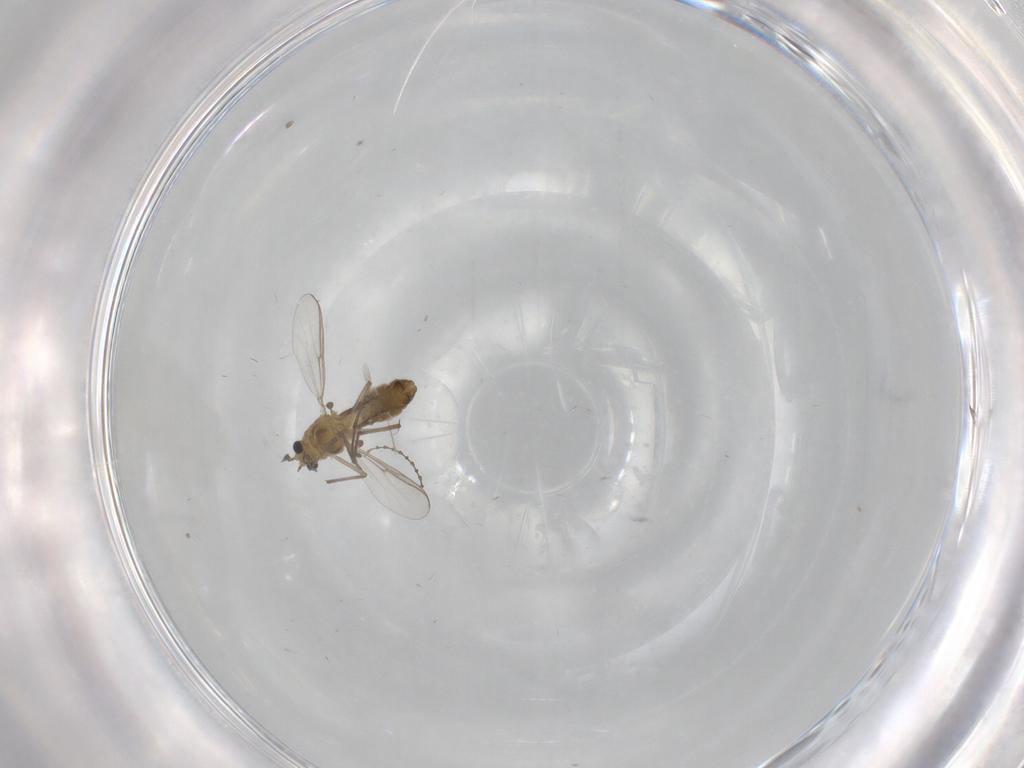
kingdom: Animalia
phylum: Arthropoda
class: Insecta
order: Diptera
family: Chironomidae
